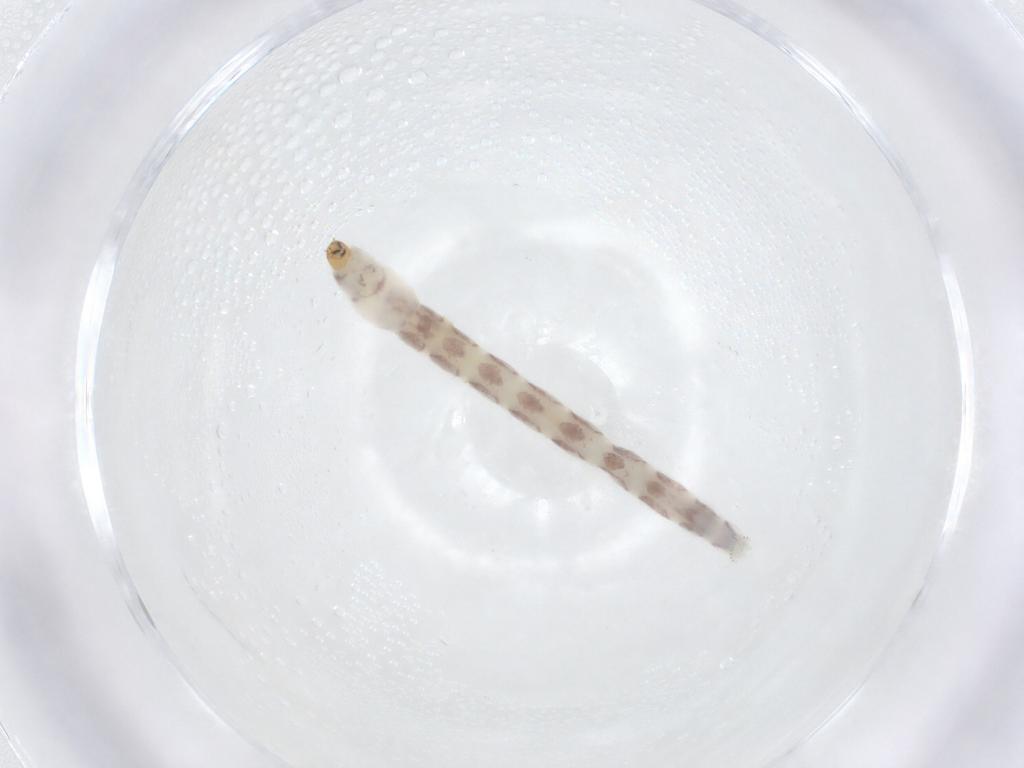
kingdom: Animalia
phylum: Arthropoda
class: Insecta
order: Diptera
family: Chironomidae
